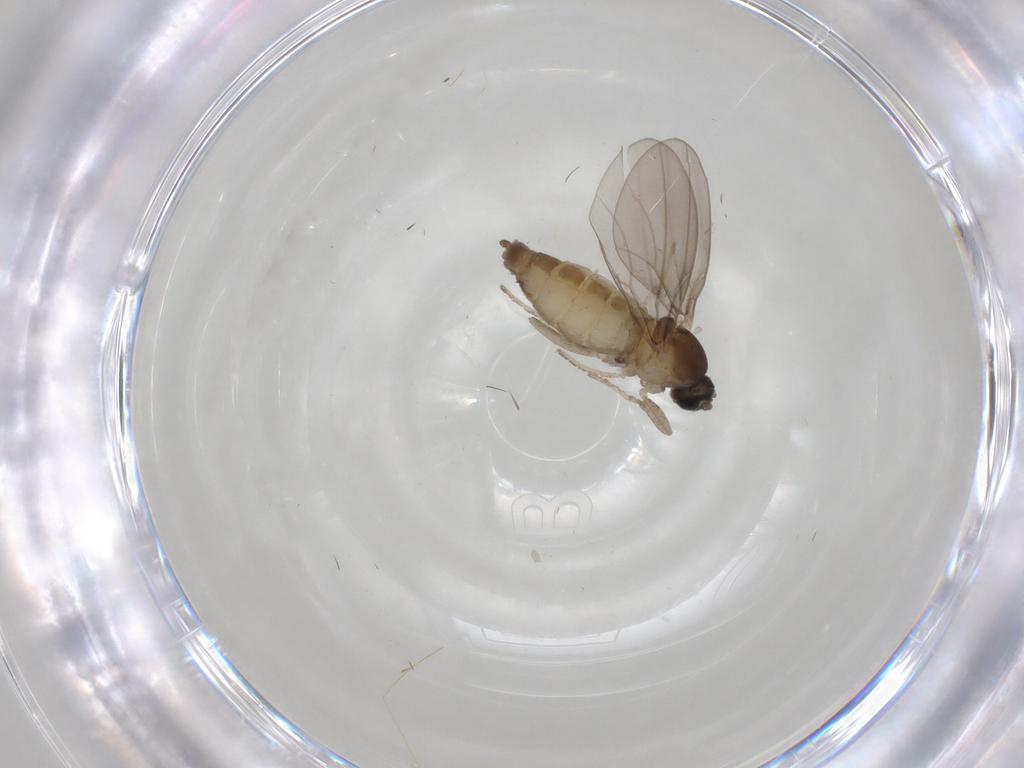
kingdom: Animalia
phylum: Arthropoda
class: Insecta
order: Diptera
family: Cecidomyiidae
